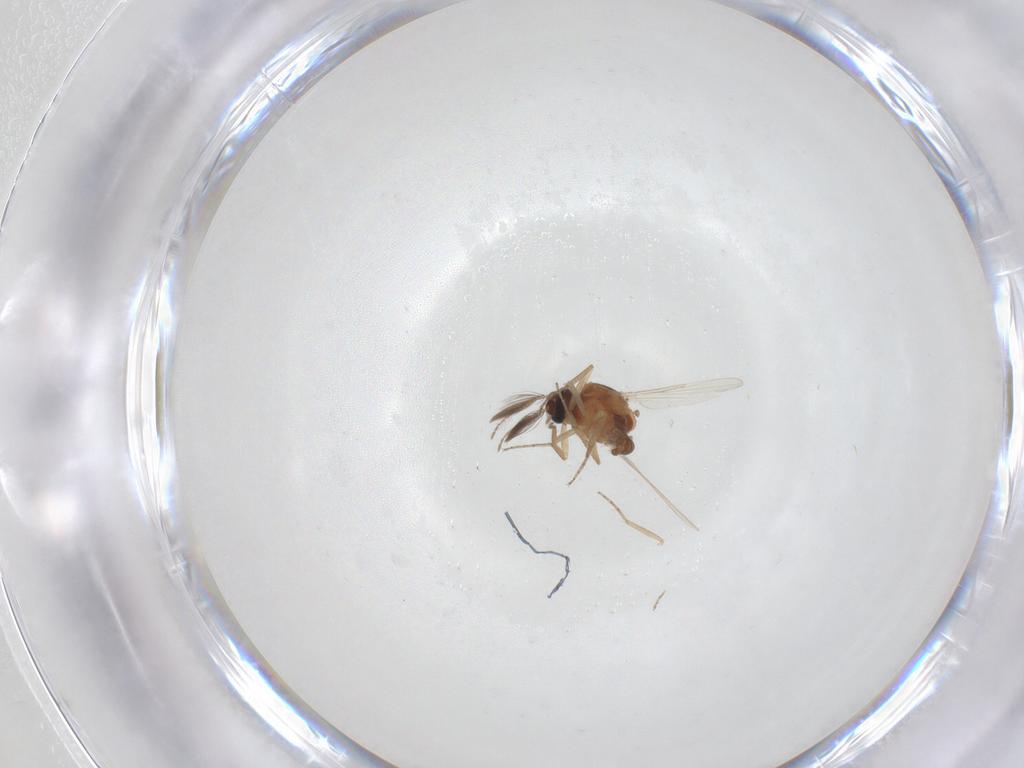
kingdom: Animalia
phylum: Arthropoda
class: Insecta
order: Diptera
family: Ceratopogonidae
